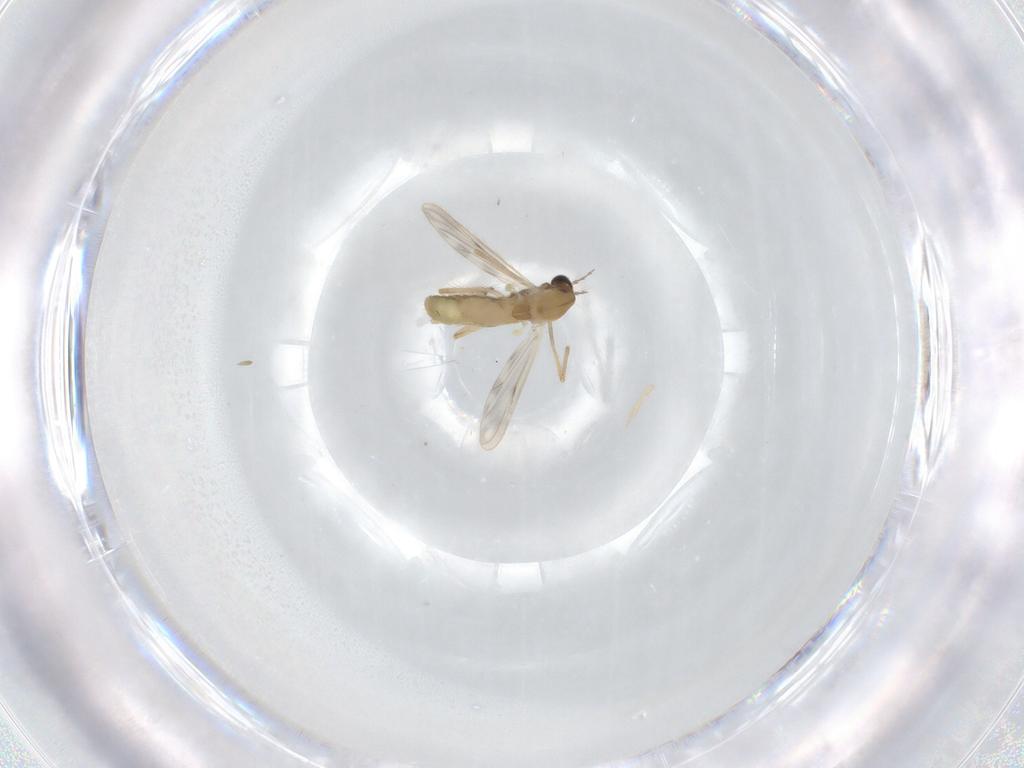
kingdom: Animalia
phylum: Arthropoda
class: Insecta
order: Diptera
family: Chironomidae
